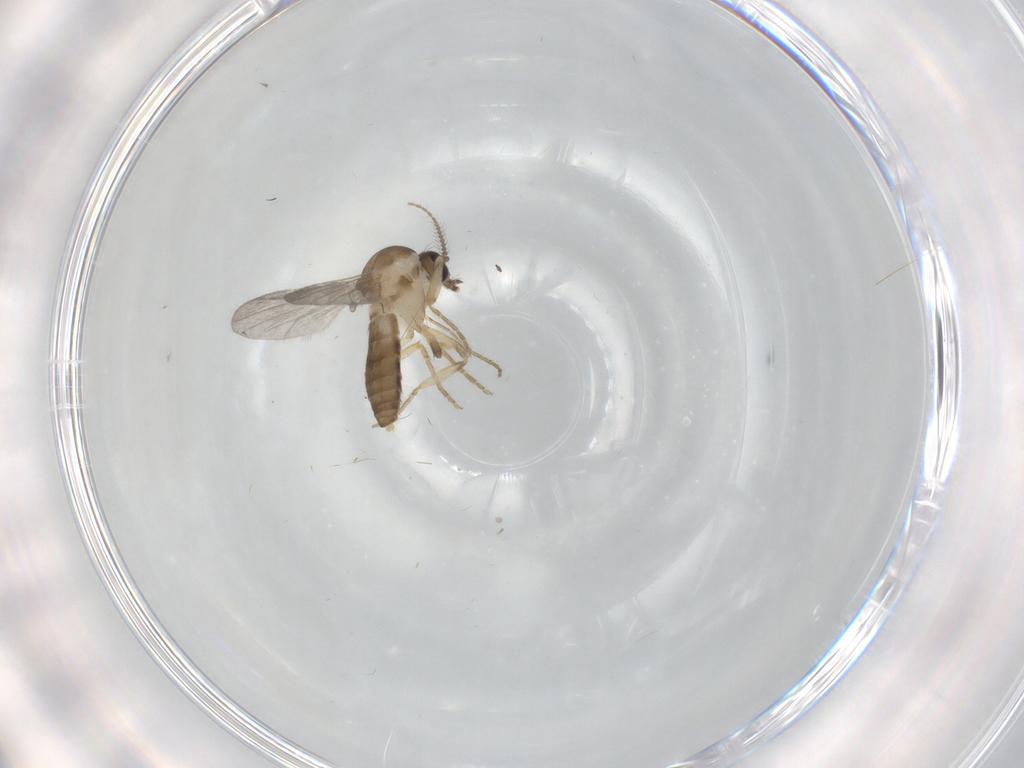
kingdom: Animalia
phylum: Arthropoda
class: Insecta
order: Diptera
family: Ceratopogonidae
